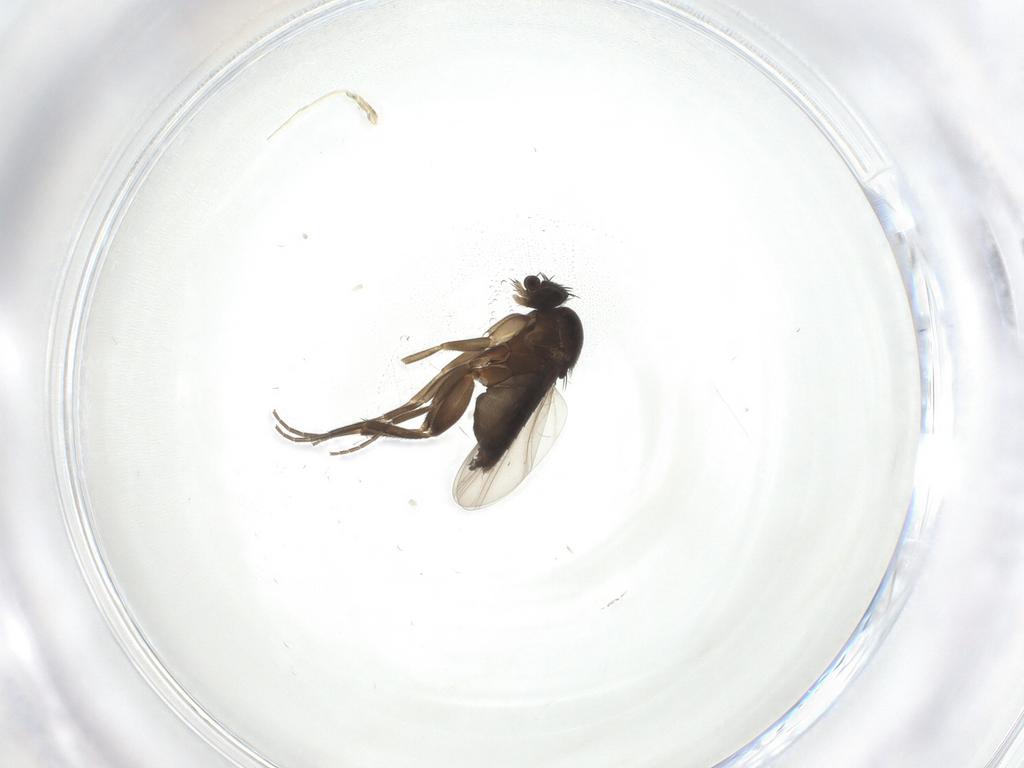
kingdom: Animalia
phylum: Arthropoda
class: Insecta
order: Diptera
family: Phoridae
